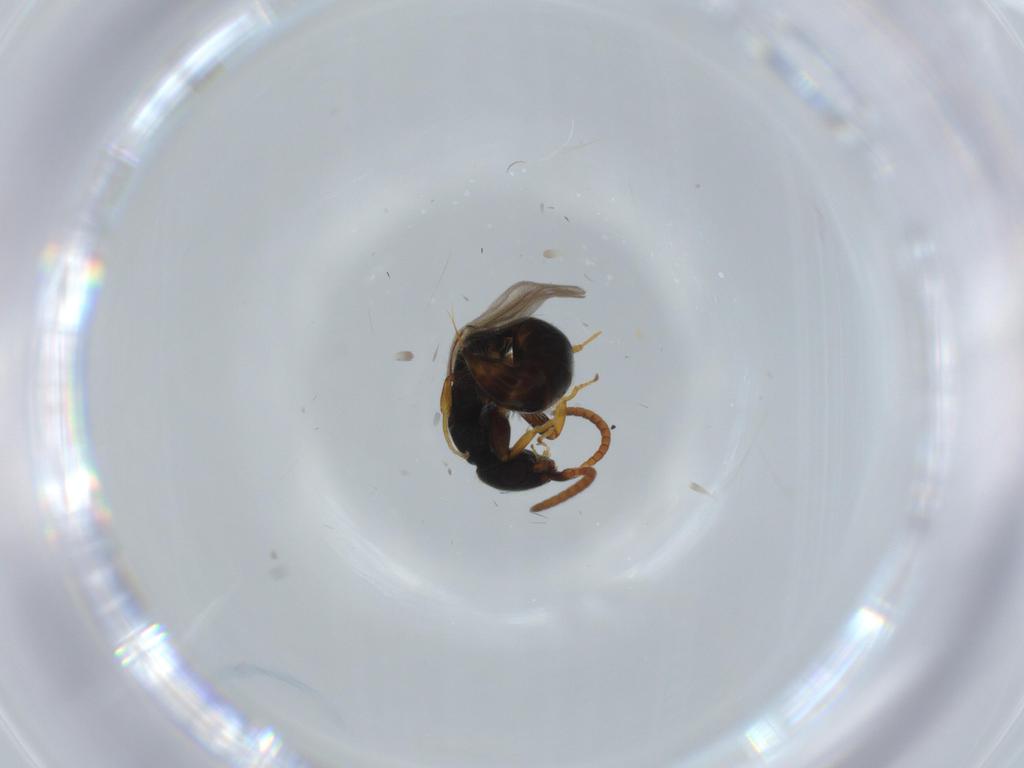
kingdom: Animalia
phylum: Arthropoda
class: Insecta
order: Hymenoptera
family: Bethylidae
